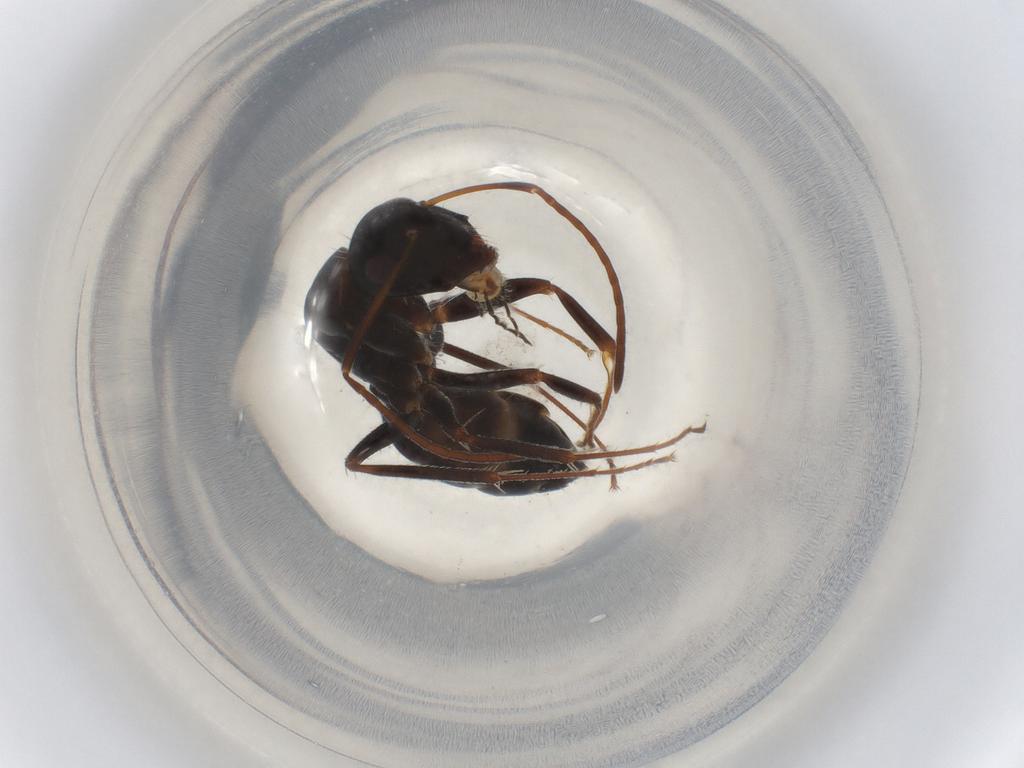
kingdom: Animalia
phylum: Arthropoda
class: Insecta
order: Hymenoptera
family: Formicidae
